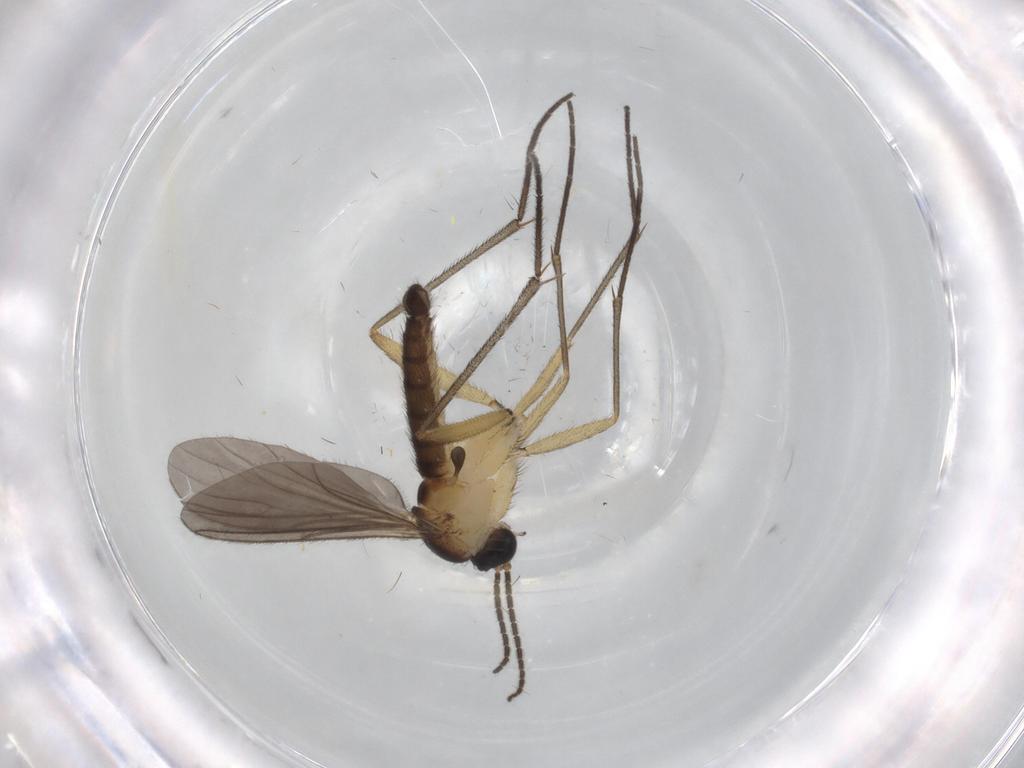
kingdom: Animalia
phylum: Arthropoda
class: Insecta
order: Diptera
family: Sciaridae
